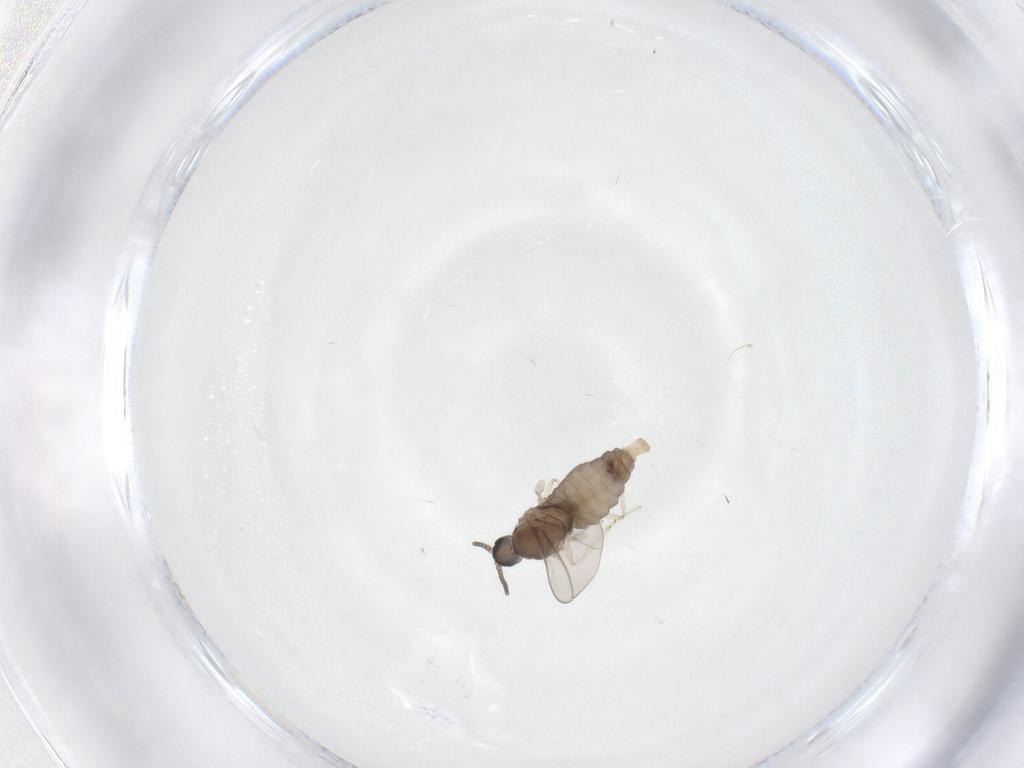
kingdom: Animalia
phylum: Arthropoda
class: Insecta
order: Diptera
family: Cecidomyiidae
